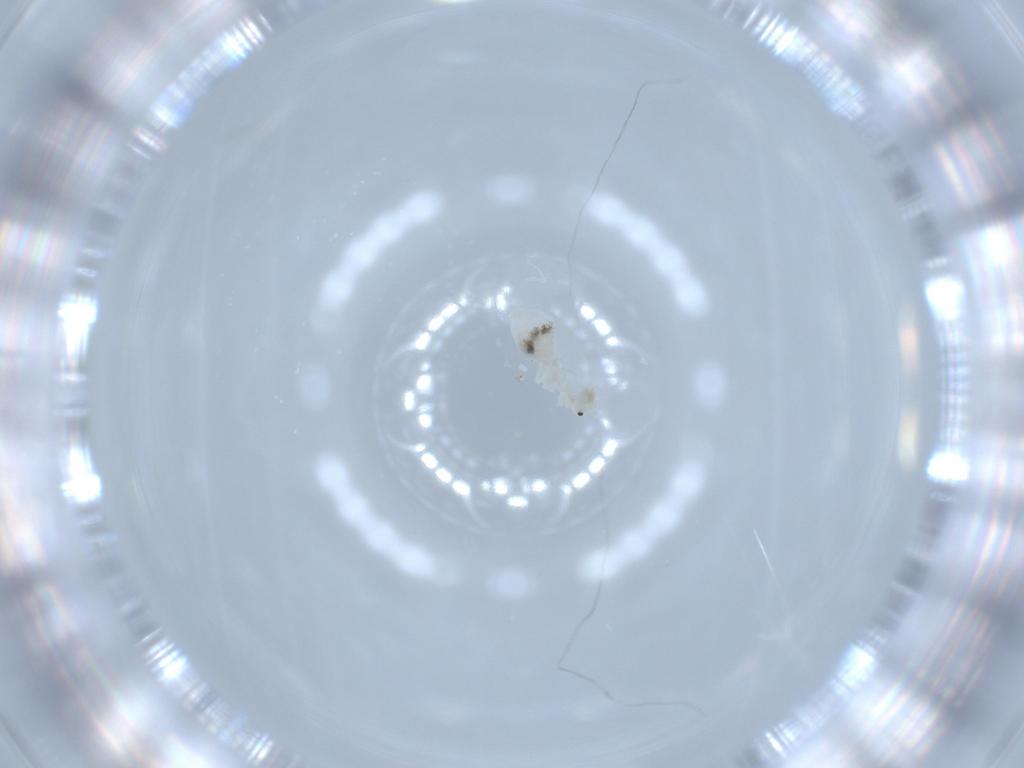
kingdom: Animalia
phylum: Arthropoda
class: Insecta
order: Psocodea
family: Caeciliusidae
